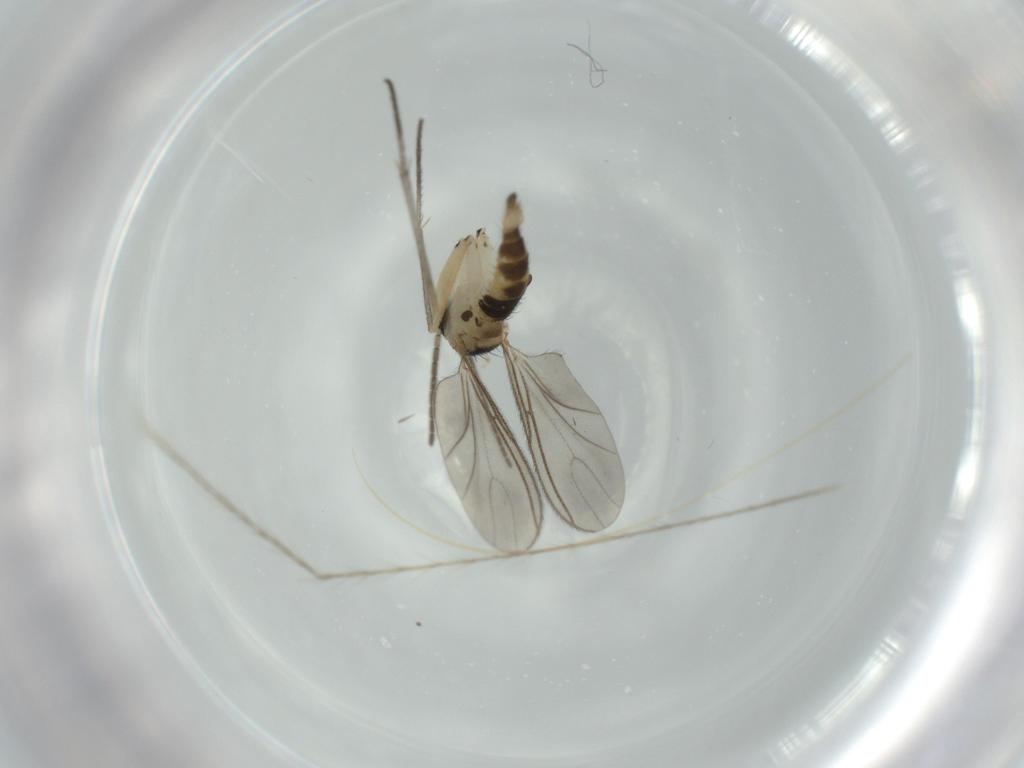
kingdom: Animalia
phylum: Arthropoda
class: Insecta
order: Diptera
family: Sciaridae
